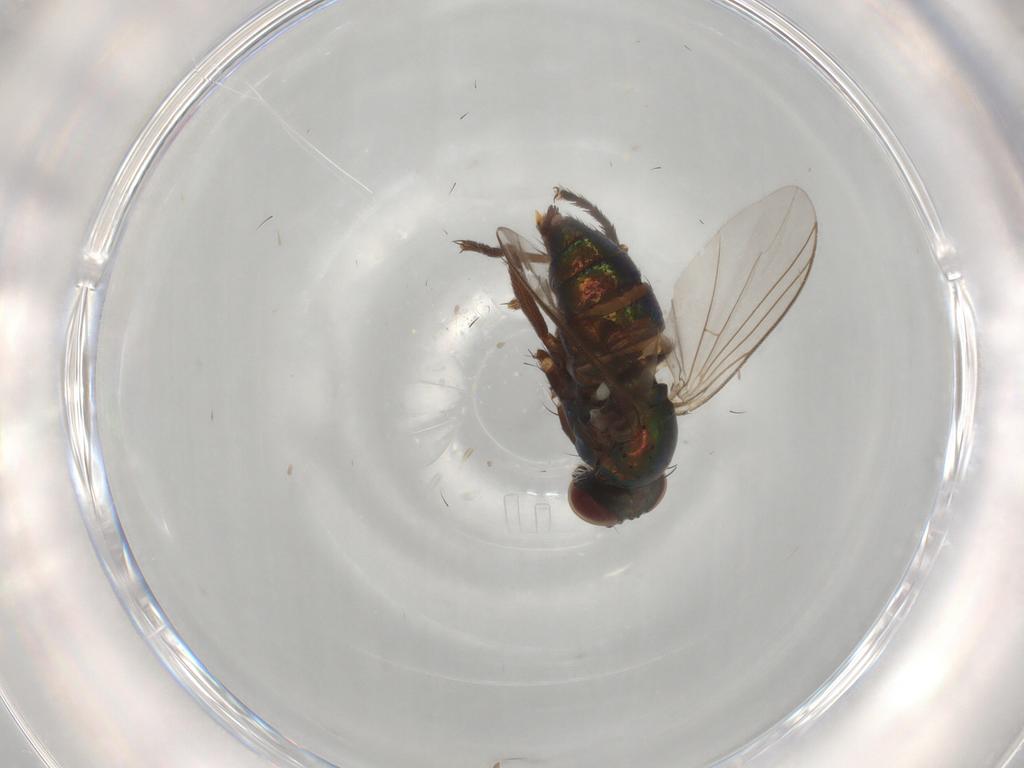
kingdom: Animalia
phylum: Arthropoda
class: Insecta
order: Diptera
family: Dolichopodidae
